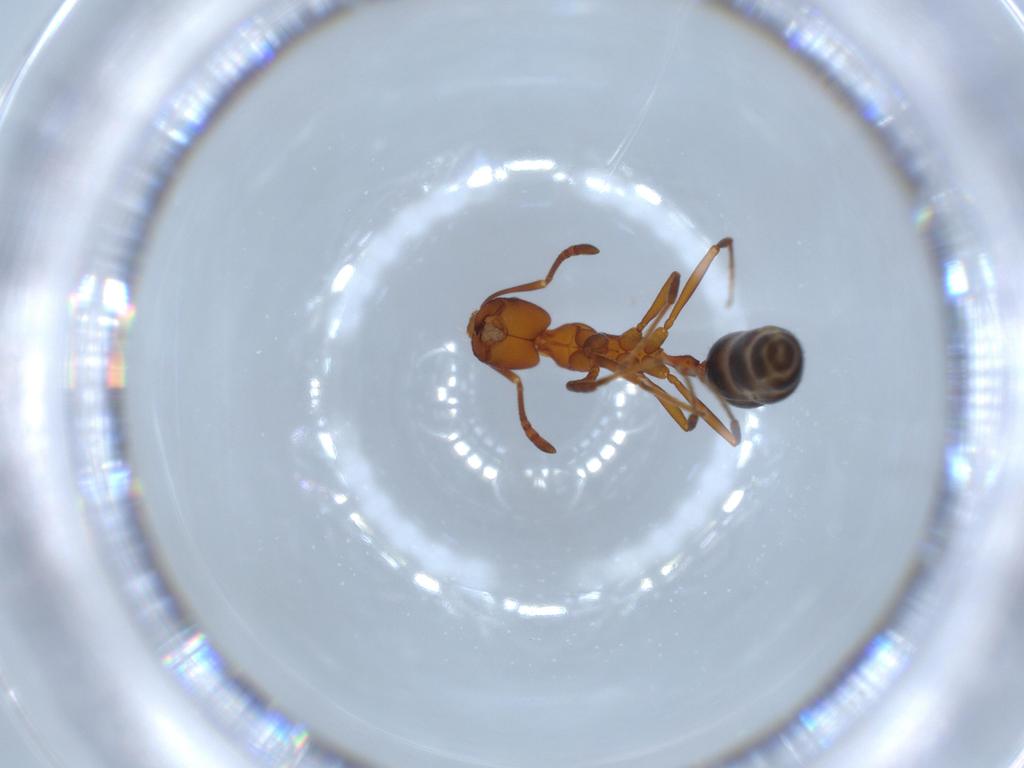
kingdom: Animalia
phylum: Arthropoda
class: Insecta
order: Hymenoptera
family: Formicidae
